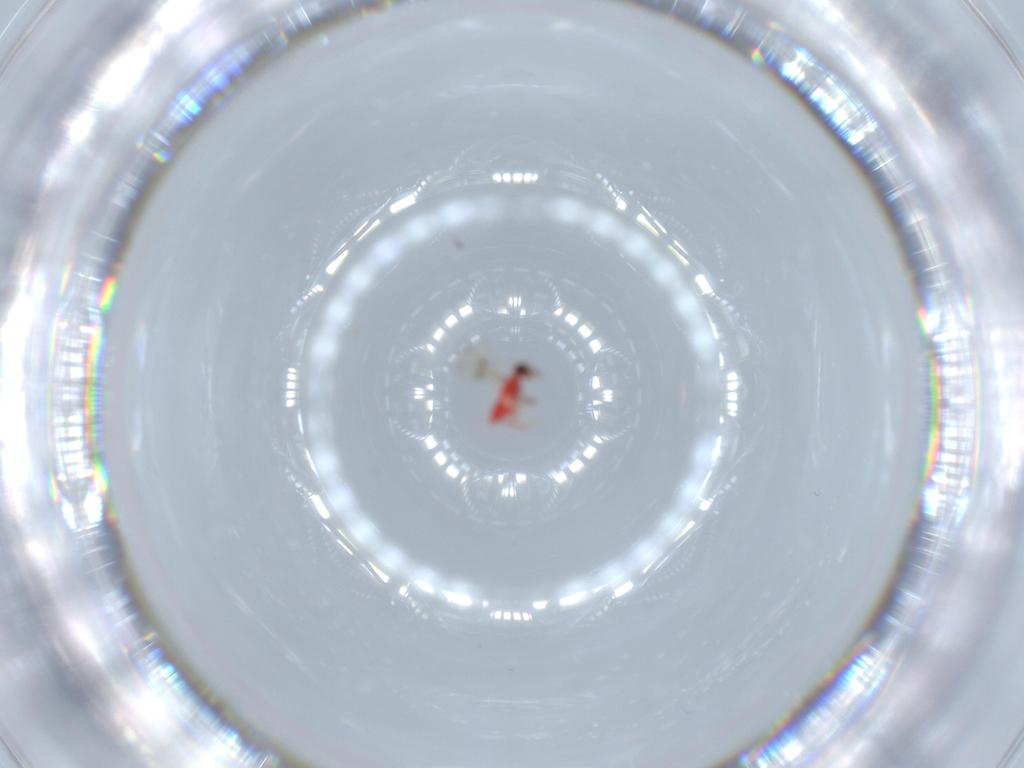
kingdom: Animalia
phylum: Arthropoda
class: Insecta
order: Hymenoptera
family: Trichogrammatidae
